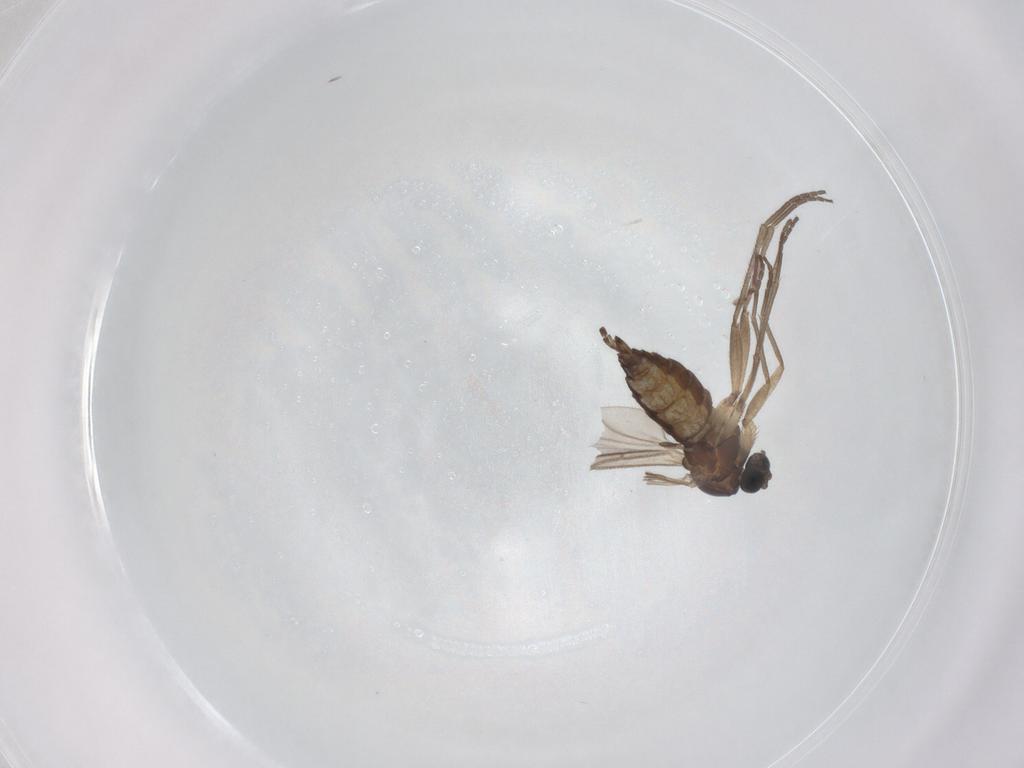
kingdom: Animalia
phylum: Arthropoda
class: Insecta
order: Diptera
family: Sciaridae
